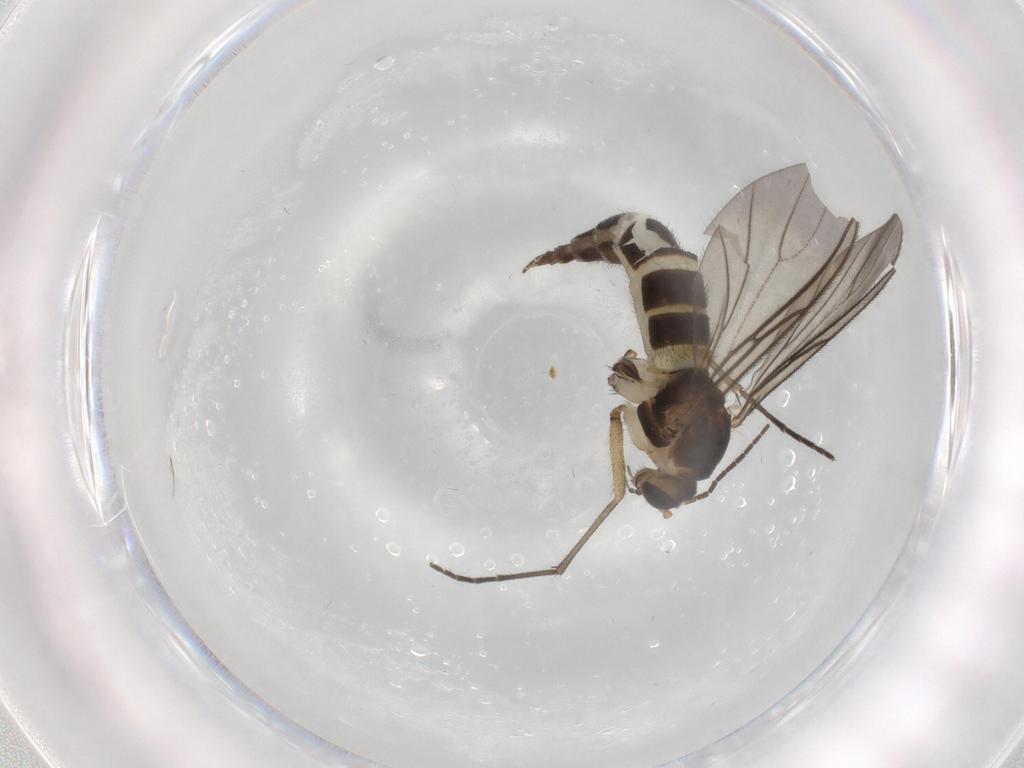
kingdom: Animalia
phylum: Arthropoda
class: Insecta
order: Diptera
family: Sciaridae
